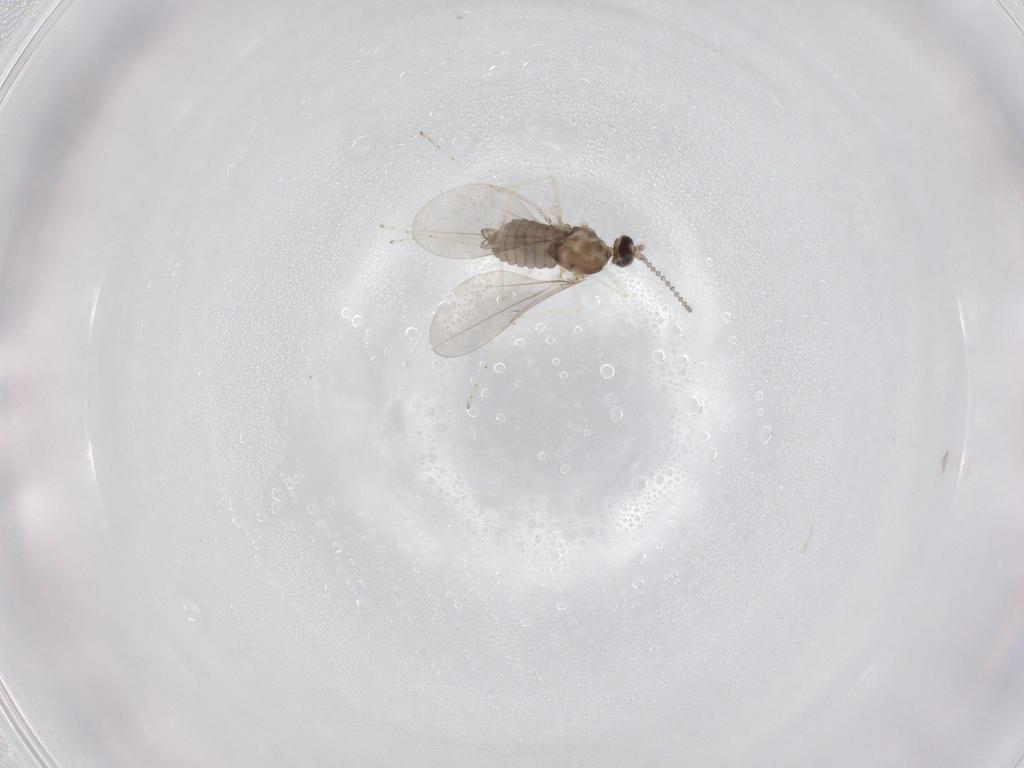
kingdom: Animalia
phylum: Arthropoda
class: Insecta
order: Diptera
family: Cecidomyiidae
